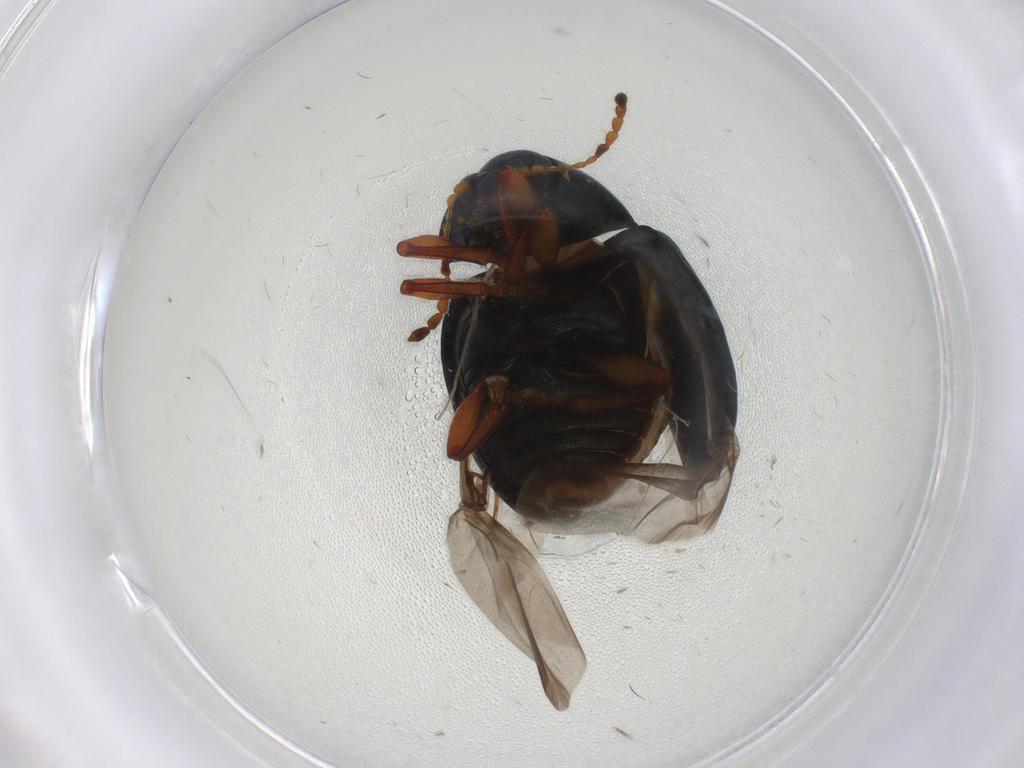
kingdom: Animalia
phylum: Arthropoda
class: Insecta
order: Coleoptera
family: Chrysomelidae
